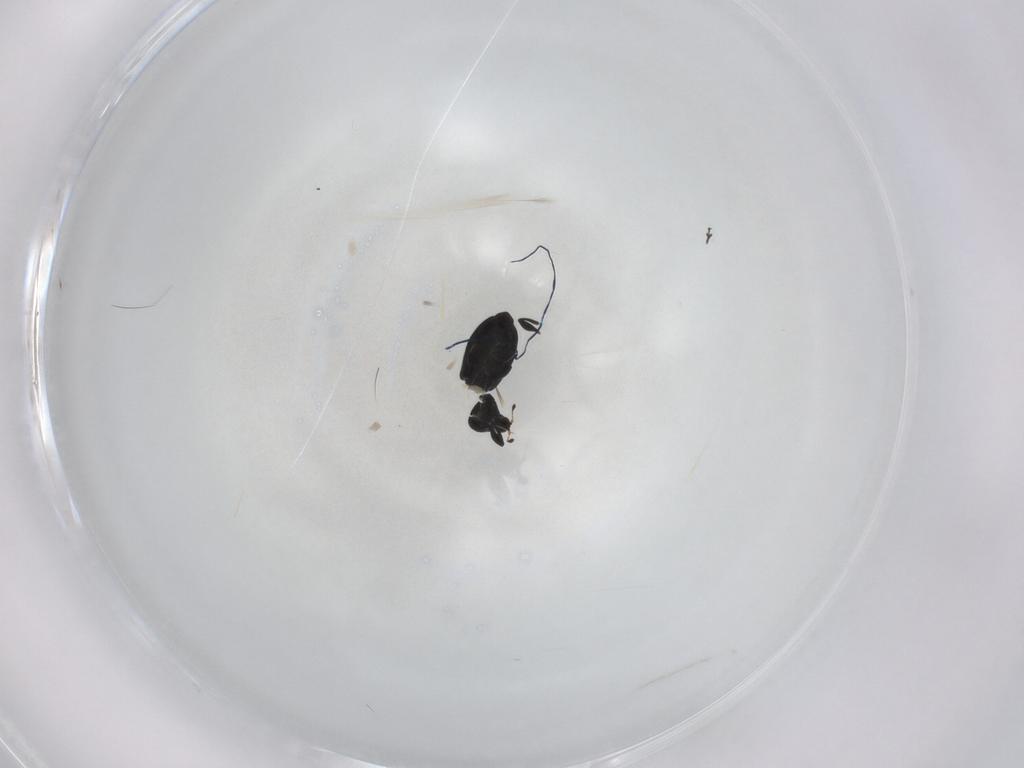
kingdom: Animalia
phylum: Arthropoda
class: Insecta
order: Coleoptera
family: Curculionidae
